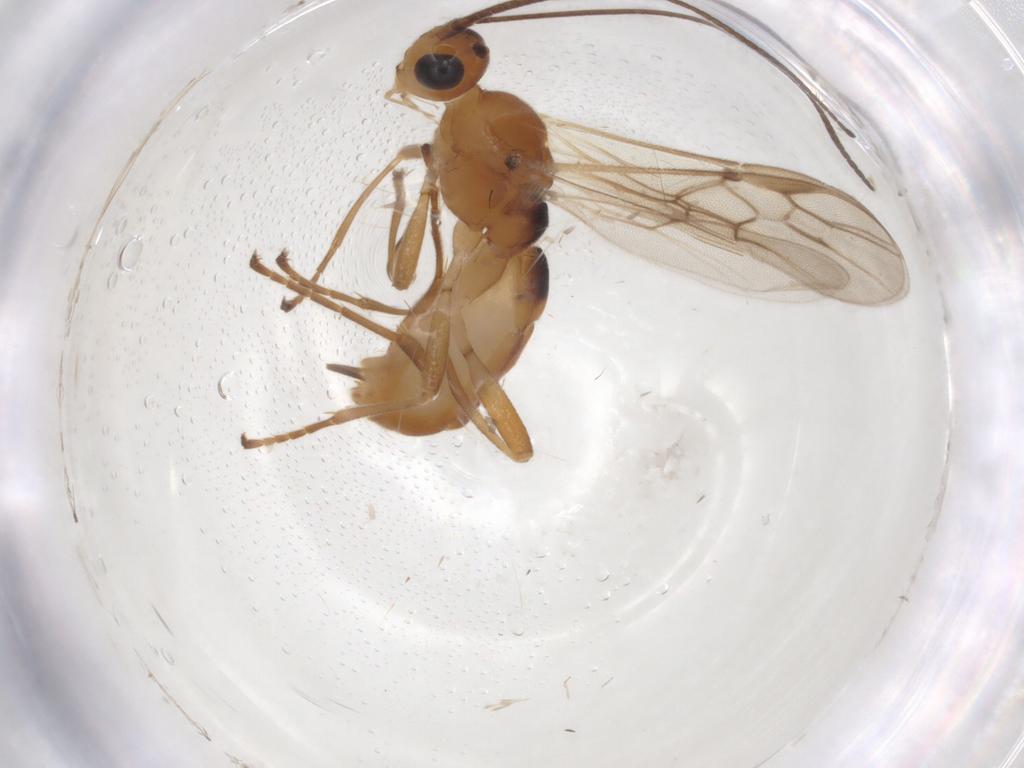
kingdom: Animalia
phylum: Arthropoda
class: Insecta
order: Hymenoptera
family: Braconidae
